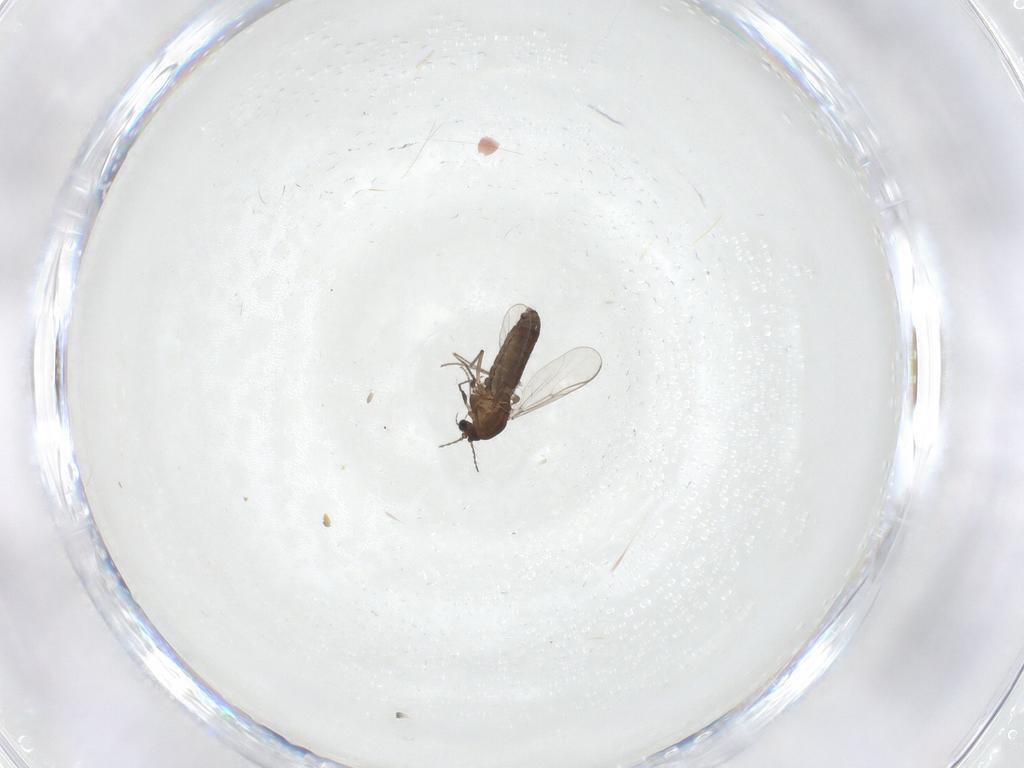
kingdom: Animalia
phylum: Arthropoda
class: Insecta
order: Diptera
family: Chironomidae
